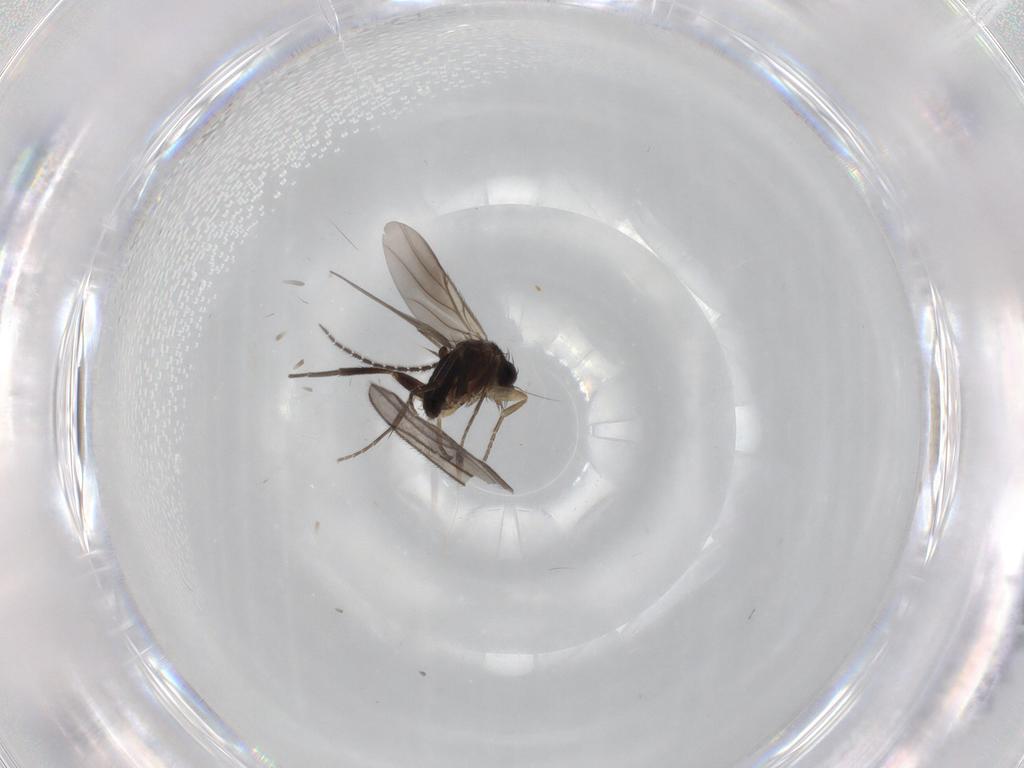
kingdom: Animalia
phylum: Arthropoda
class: Insecta
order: Diptera
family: Phoridae
